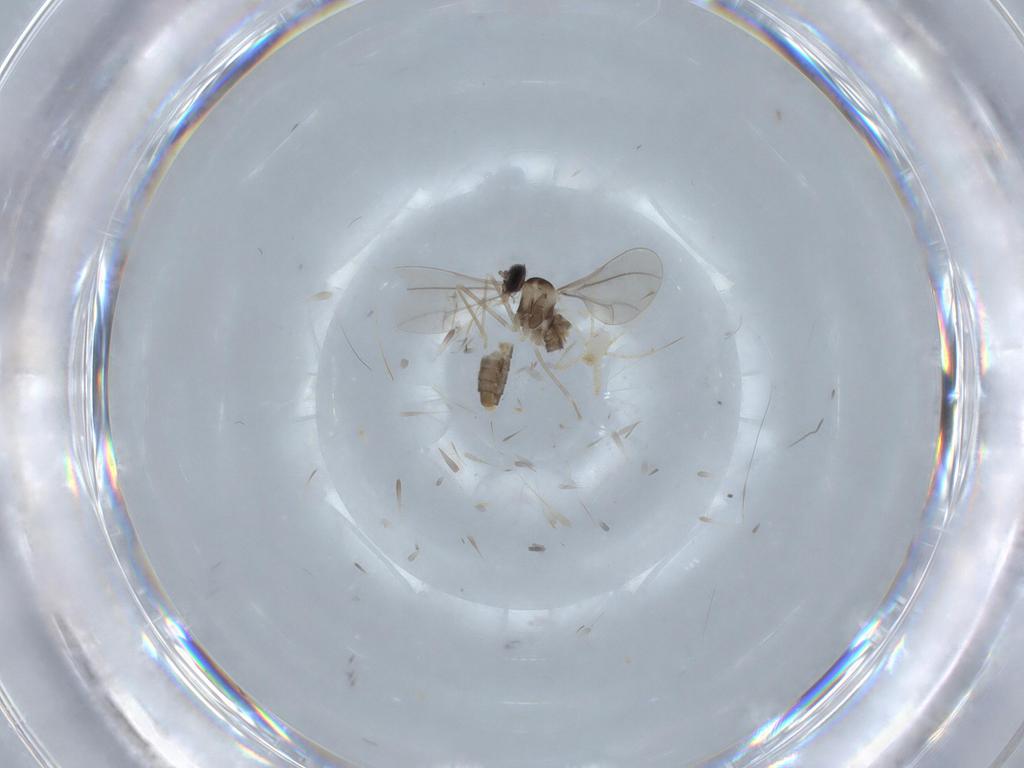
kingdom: Animalia
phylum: Arthropoda
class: Insecta
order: Diptera
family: Cecidomyiidae
